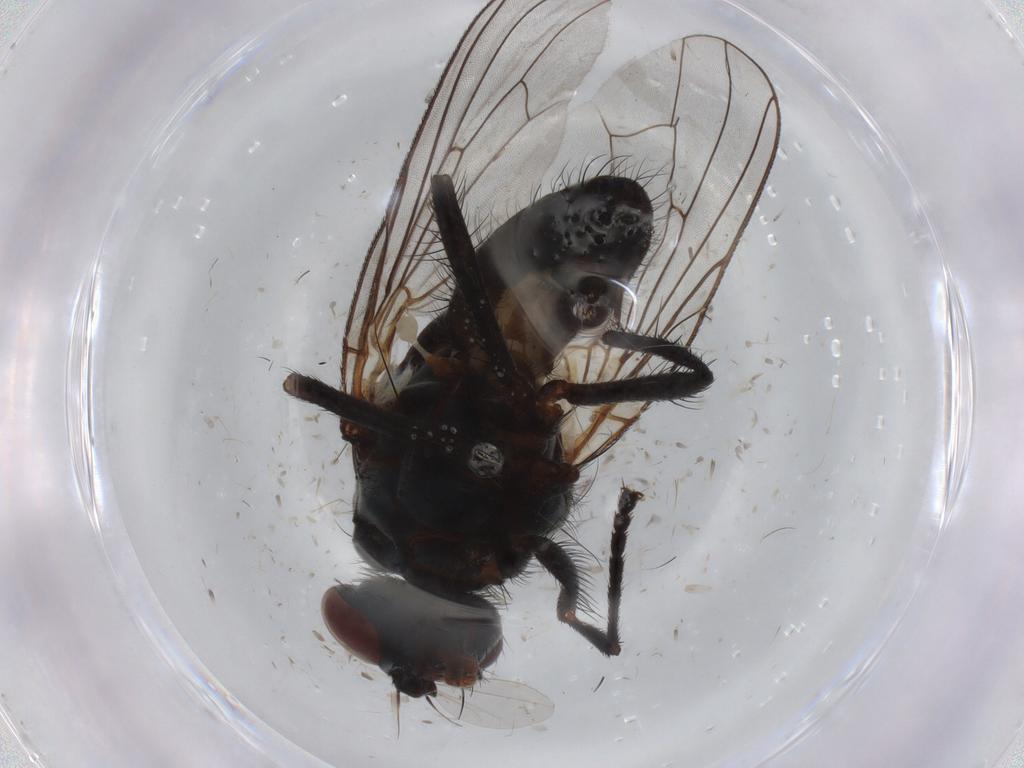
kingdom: Animalia
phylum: Arthropoda
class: Insecta
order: Diptera
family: Anthomyiidae
